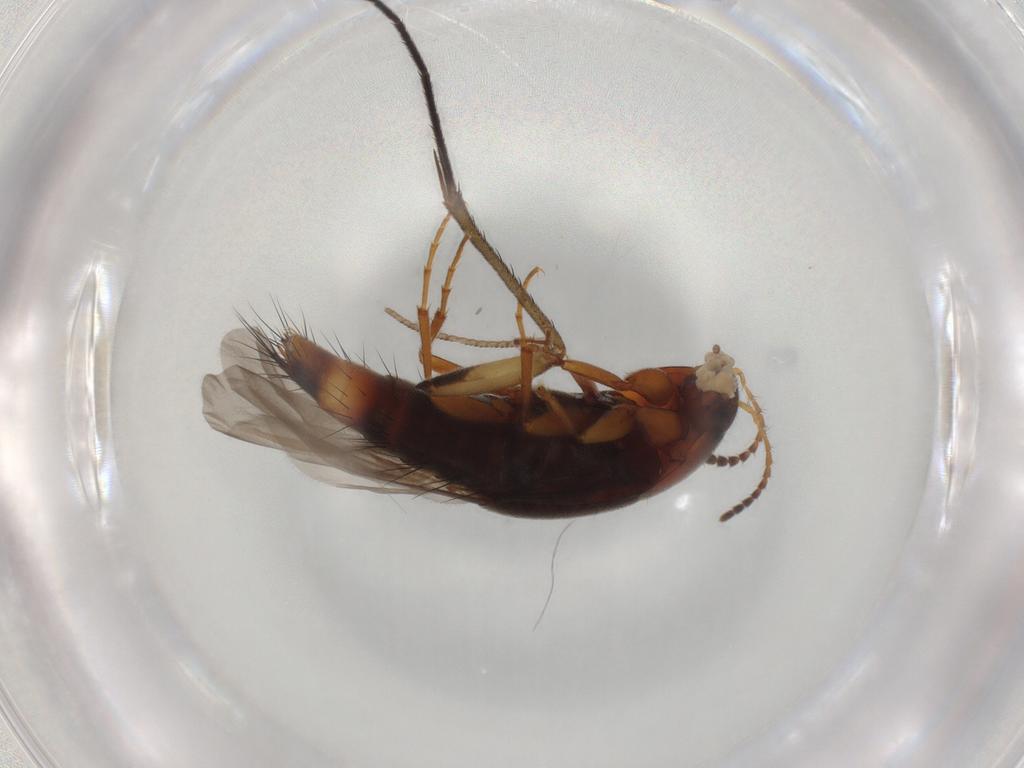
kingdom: Animalia
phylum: Arthropoda
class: Insecta
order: Coleoptera
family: Staphylinidae
